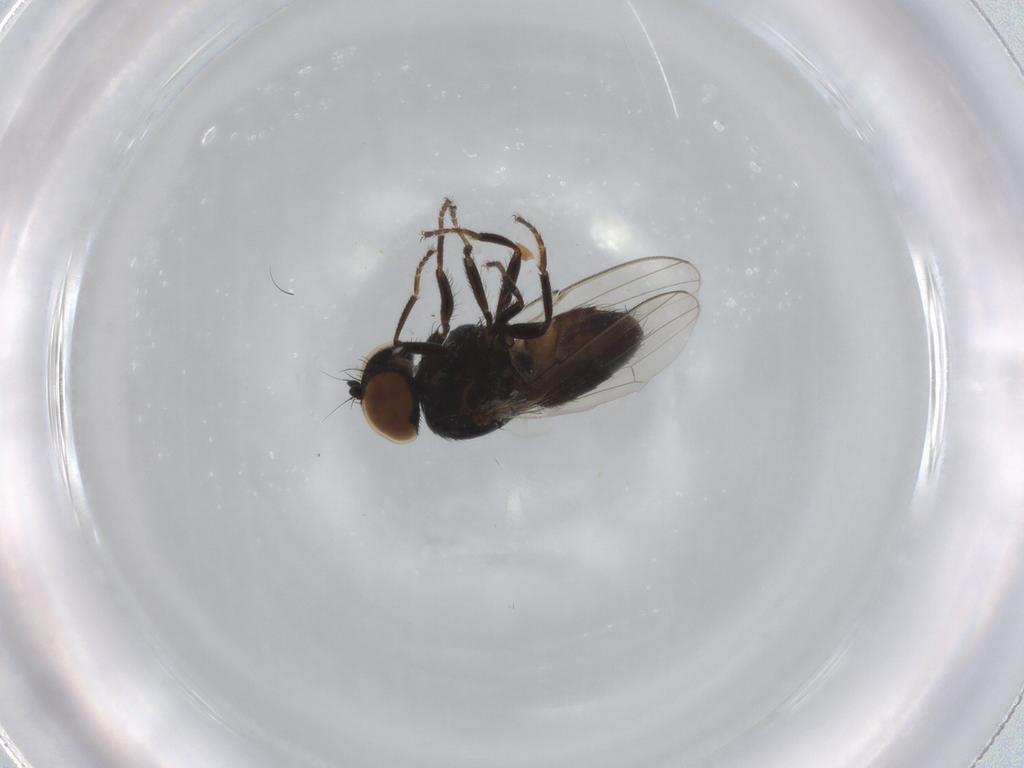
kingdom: Animalia
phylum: Arthropoda
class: Insecta
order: Diptera
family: Milichiidae
